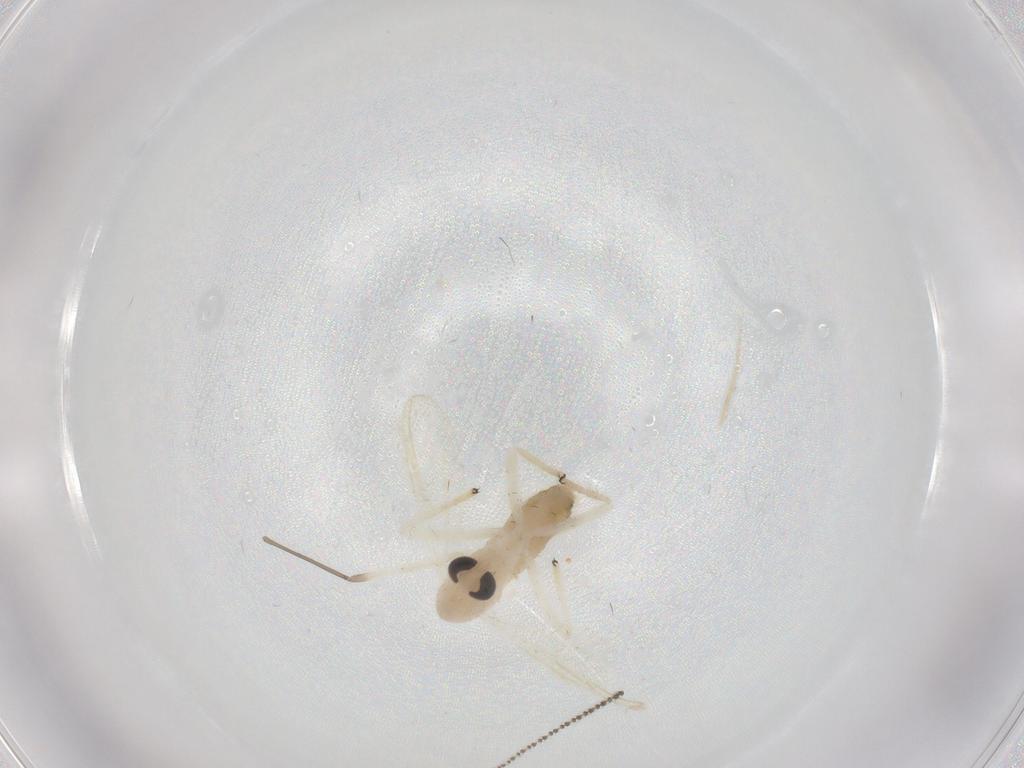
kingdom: Animalia
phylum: Arthropoda
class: Insecta
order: Diptera
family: Chironomidae
